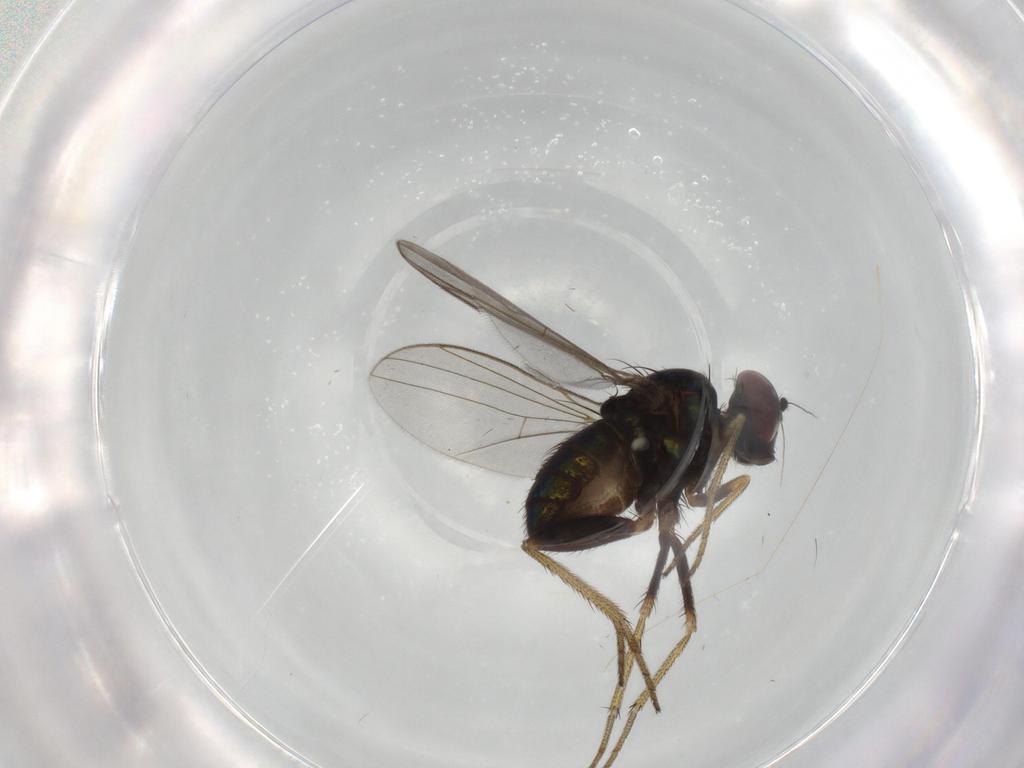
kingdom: Animalia
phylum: Arthropoda
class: Insecta
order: Diptera
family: Dolichopodidae
